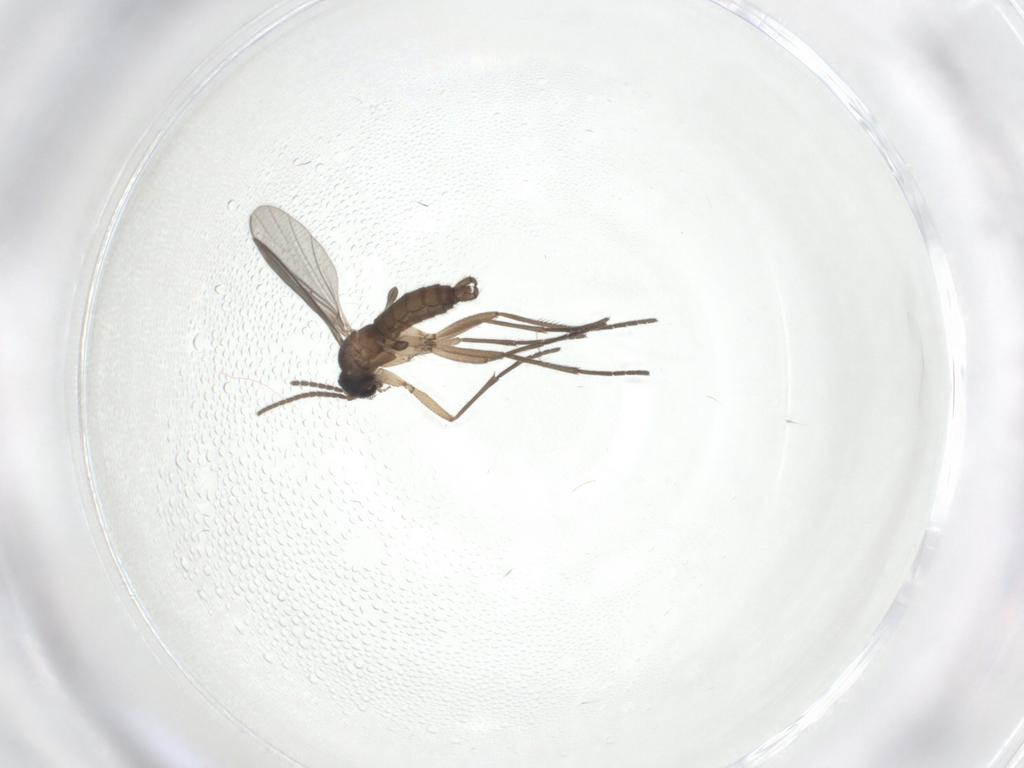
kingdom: Animalia
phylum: Arthropoda
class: Insecta
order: Diptera
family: Sciaridae
